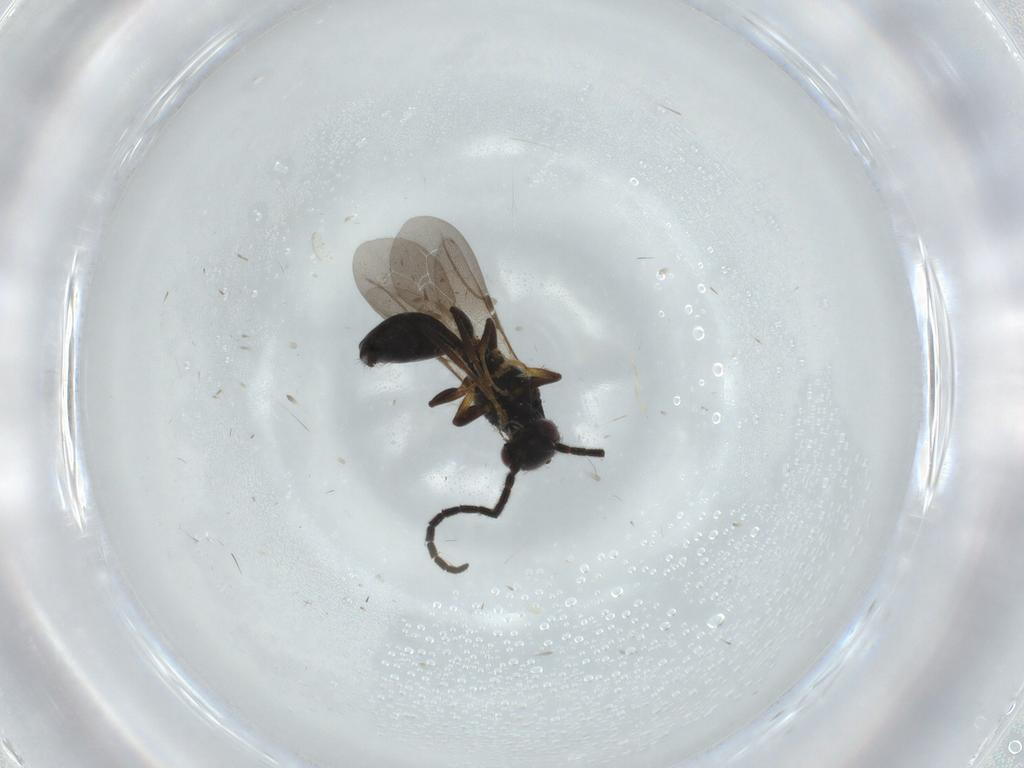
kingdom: Animalia
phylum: Arthropoda
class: Insecta
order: Hymenoptera
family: Bethylidae
